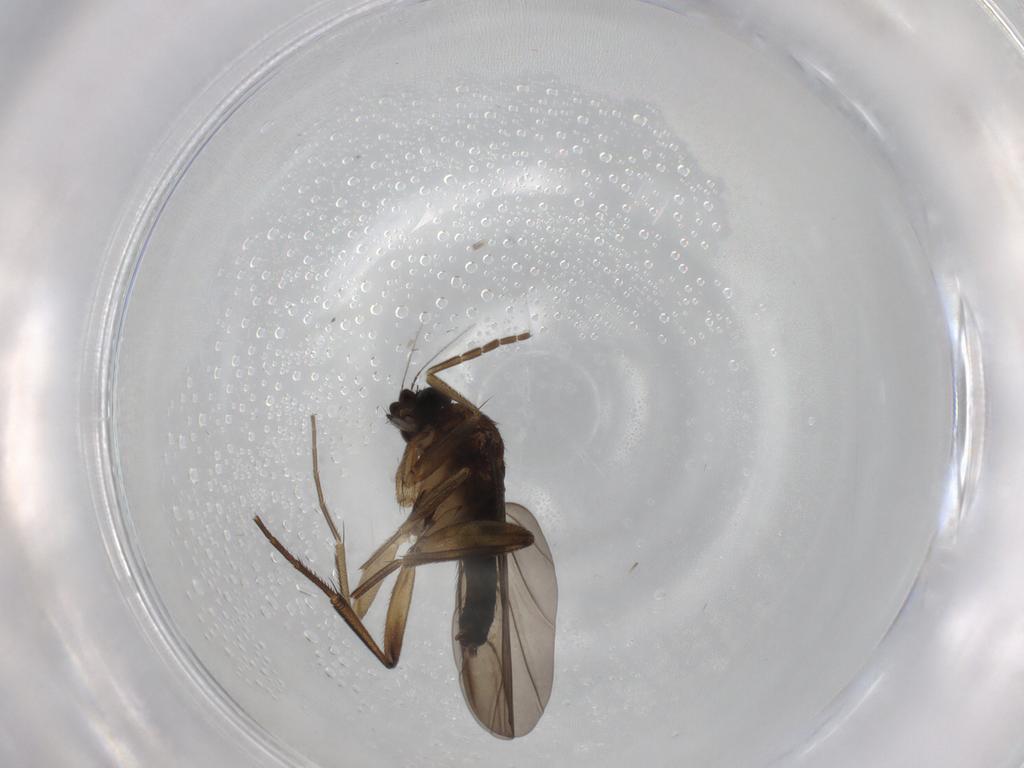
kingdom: Animalia
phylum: Arthropoda
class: Insecta
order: Diptera
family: Phoridae
